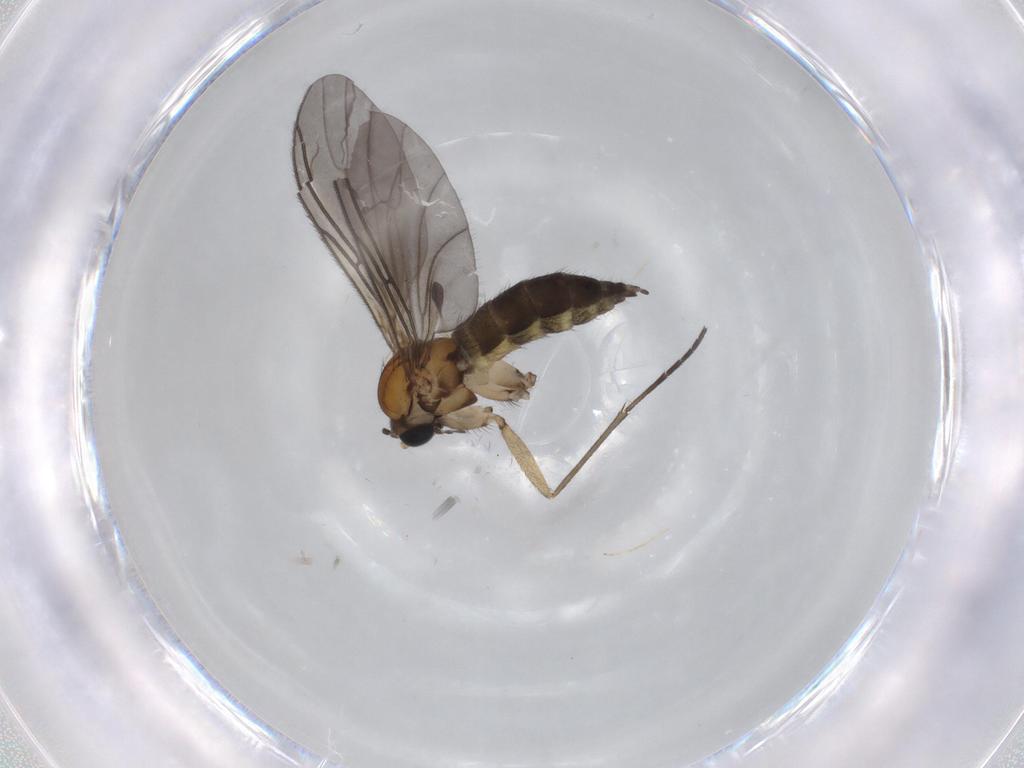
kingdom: Animalia
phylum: Arthropoda
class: Insecta
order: Diptera
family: Sciaridae
